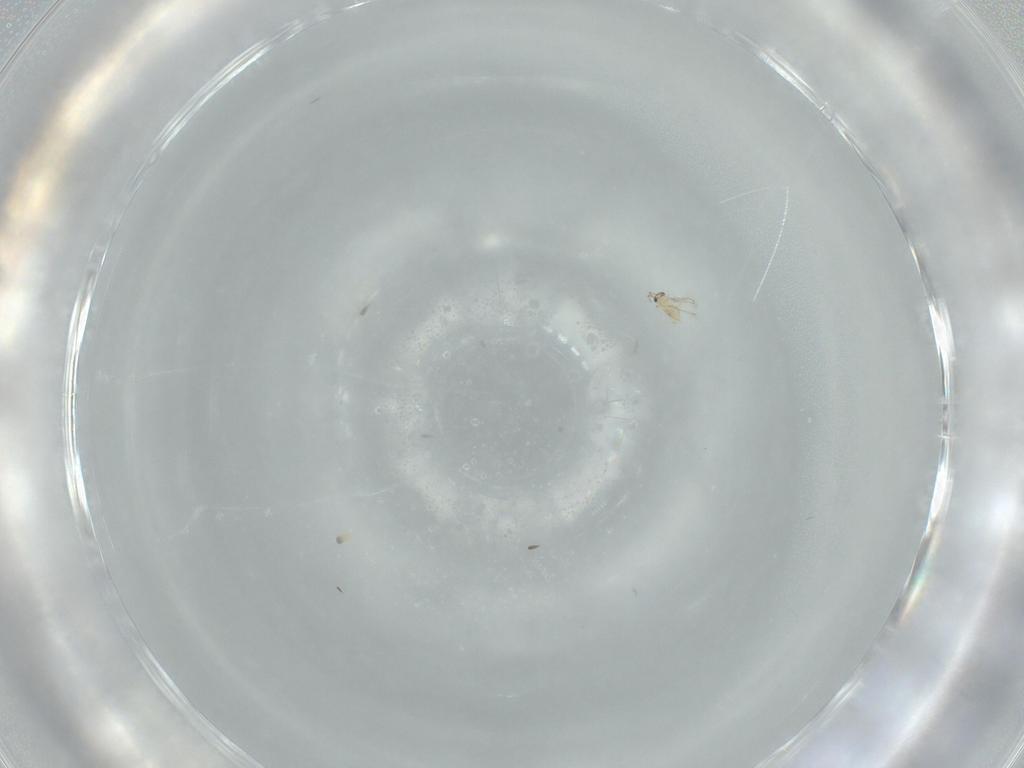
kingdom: Animalia
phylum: Arthropoda
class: Insecta
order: Hymenoptera
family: Mymaridae
